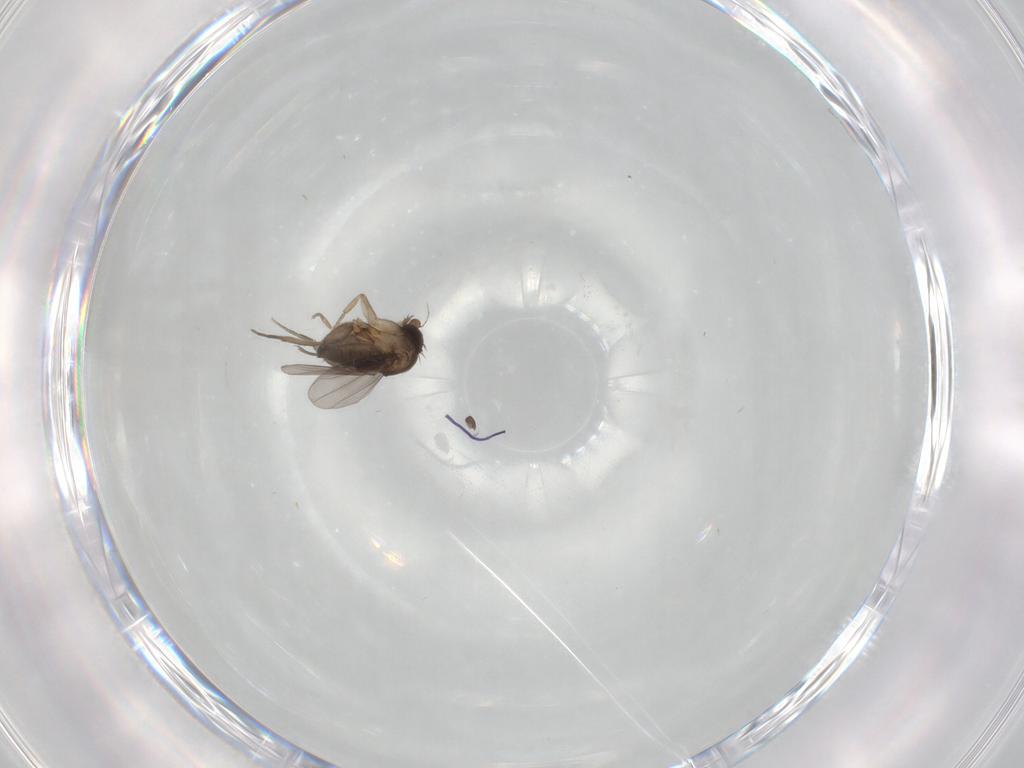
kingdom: Animalia
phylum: Arthropoda
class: Insecta
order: Diptera
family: Phoridae
